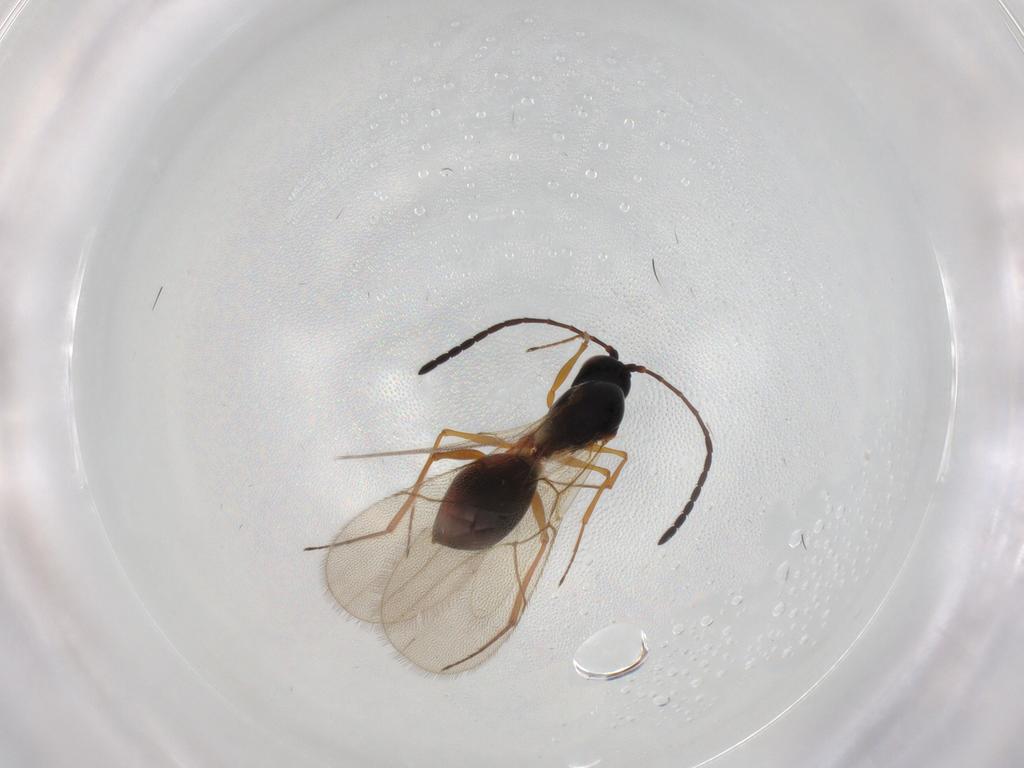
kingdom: Animalia
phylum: Arthropoda
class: Insecta
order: Hymenoptera
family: Figitidae
